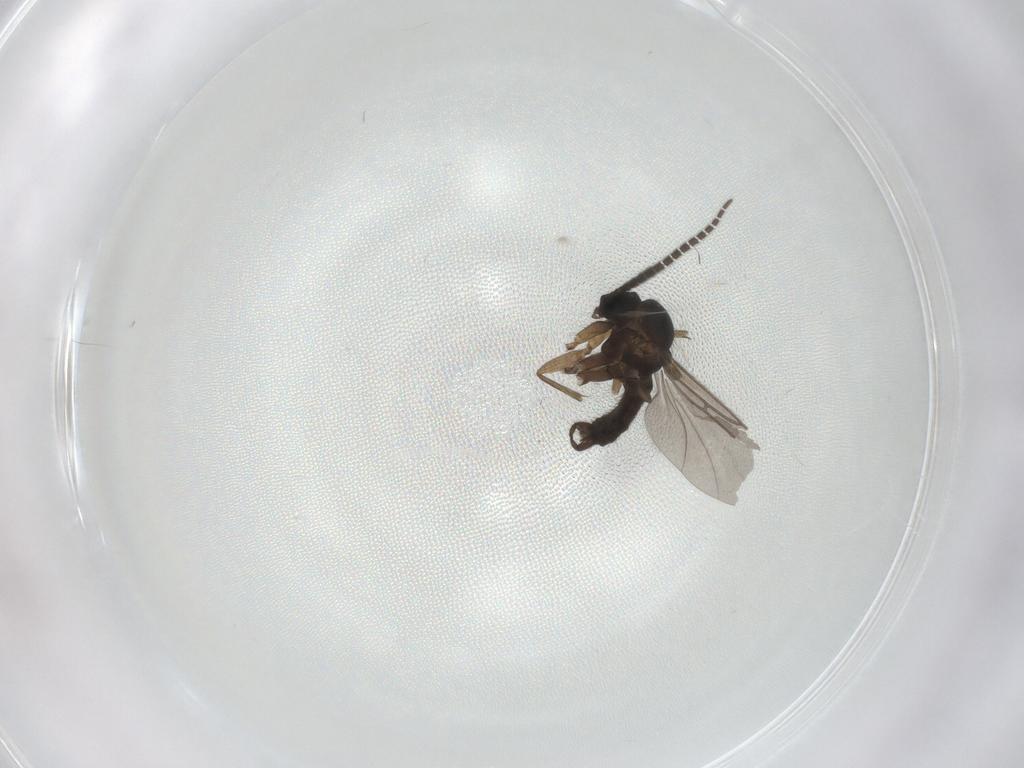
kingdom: Animalia
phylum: Arthropoda
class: Insecta
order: Diptera
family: Sciaridae
